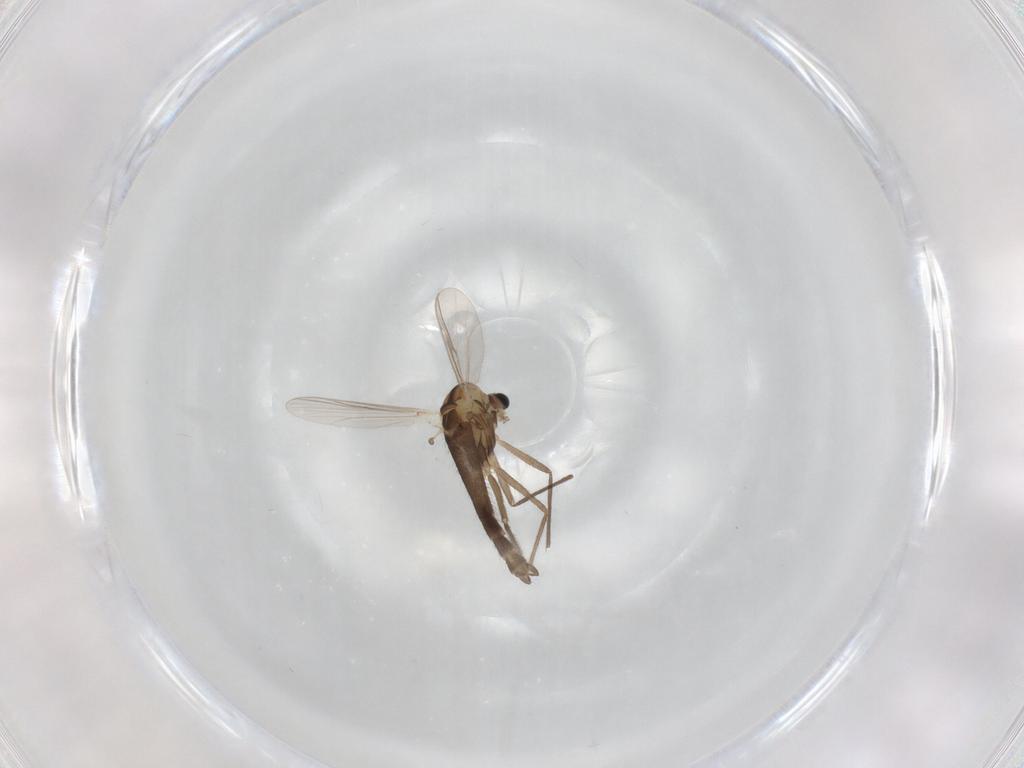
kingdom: Animalia
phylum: Arthropoda
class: Insecta
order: Diptera
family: Chironomidae
